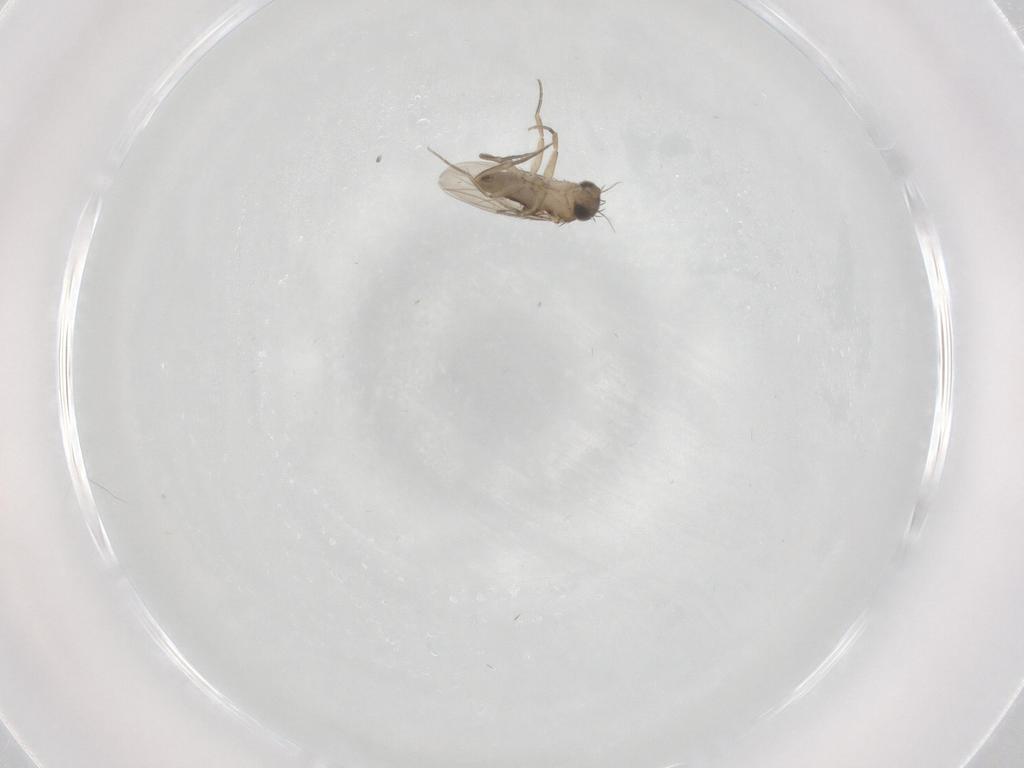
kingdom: Animalia
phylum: Arthropoda
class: Insecta
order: Diptera
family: Phoridae
